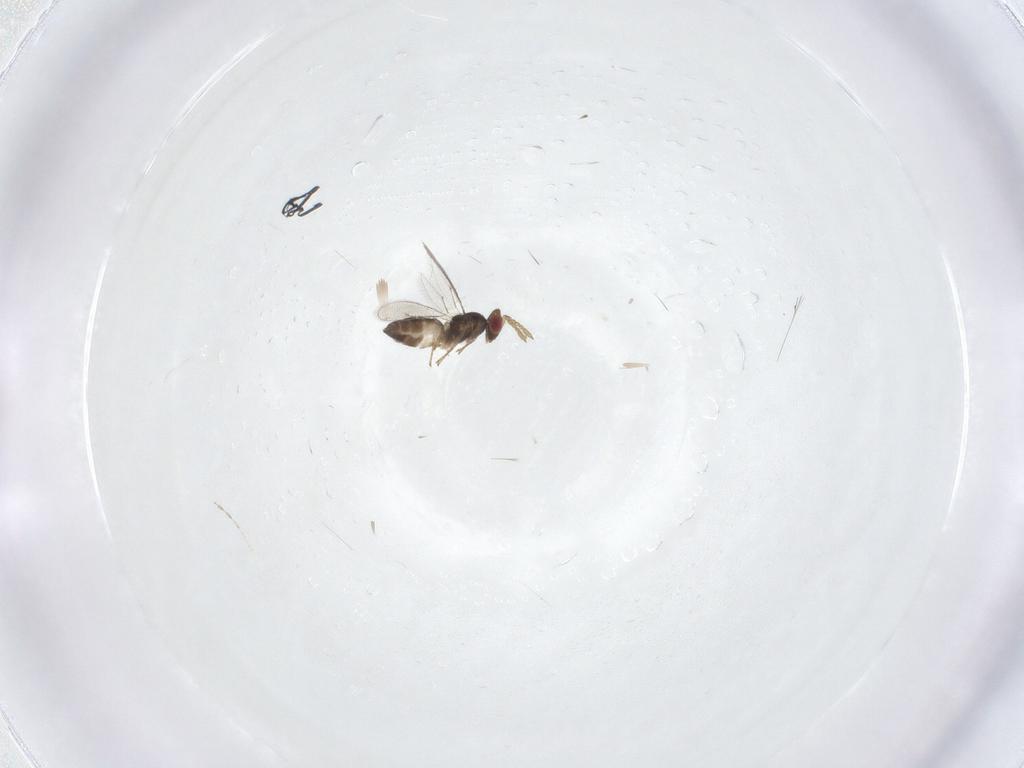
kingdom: Animalia
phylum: Arthropoda
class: Insecta
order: Hymenoptera
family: Eulophidae
